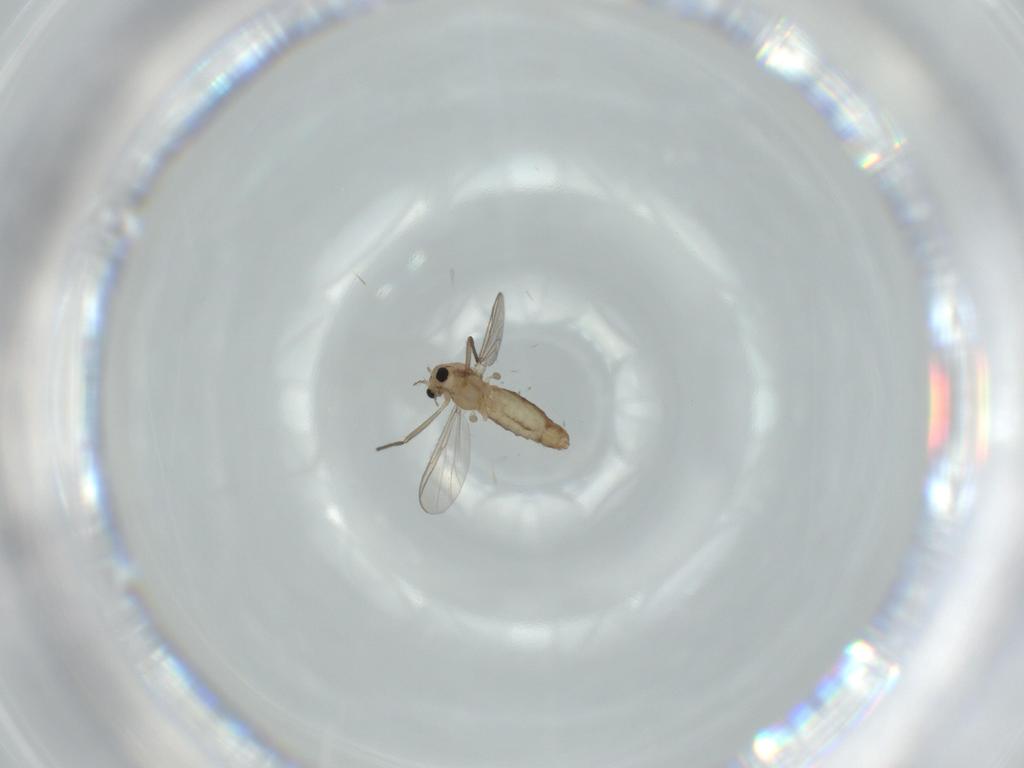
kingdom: Animalia
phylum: Arthropoda
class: Insecta
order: Diptera
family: Chironomidae
